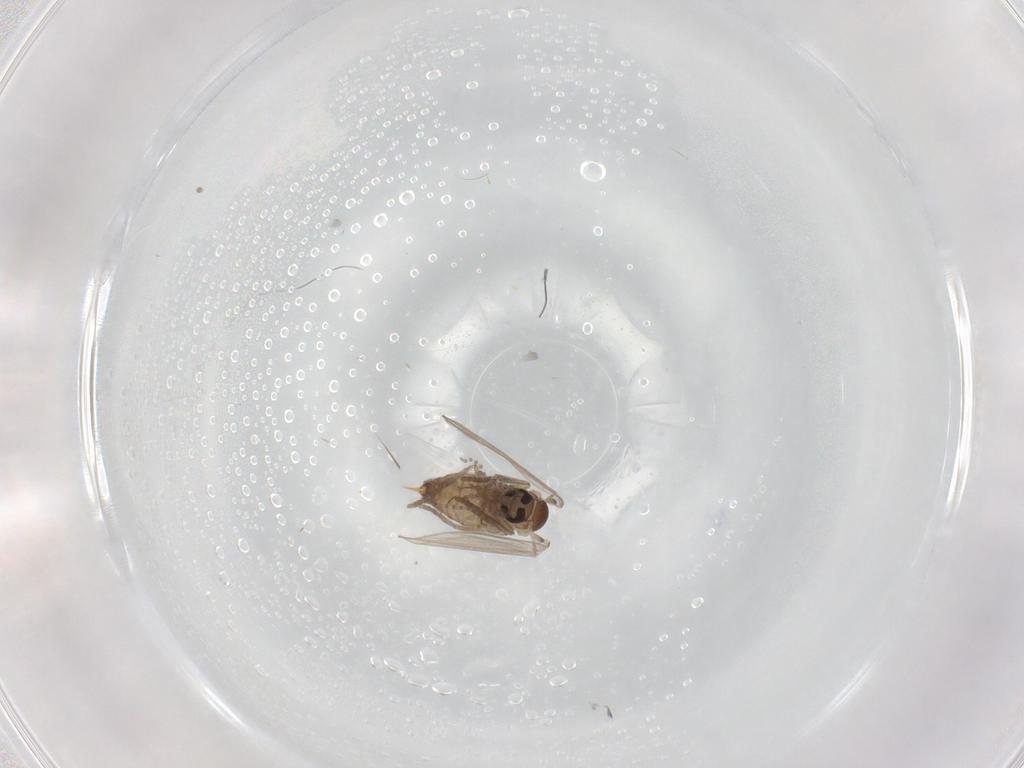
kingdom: Animalia
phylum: Arthropoda
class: Insecta
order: Diptera
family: Psychodidae
